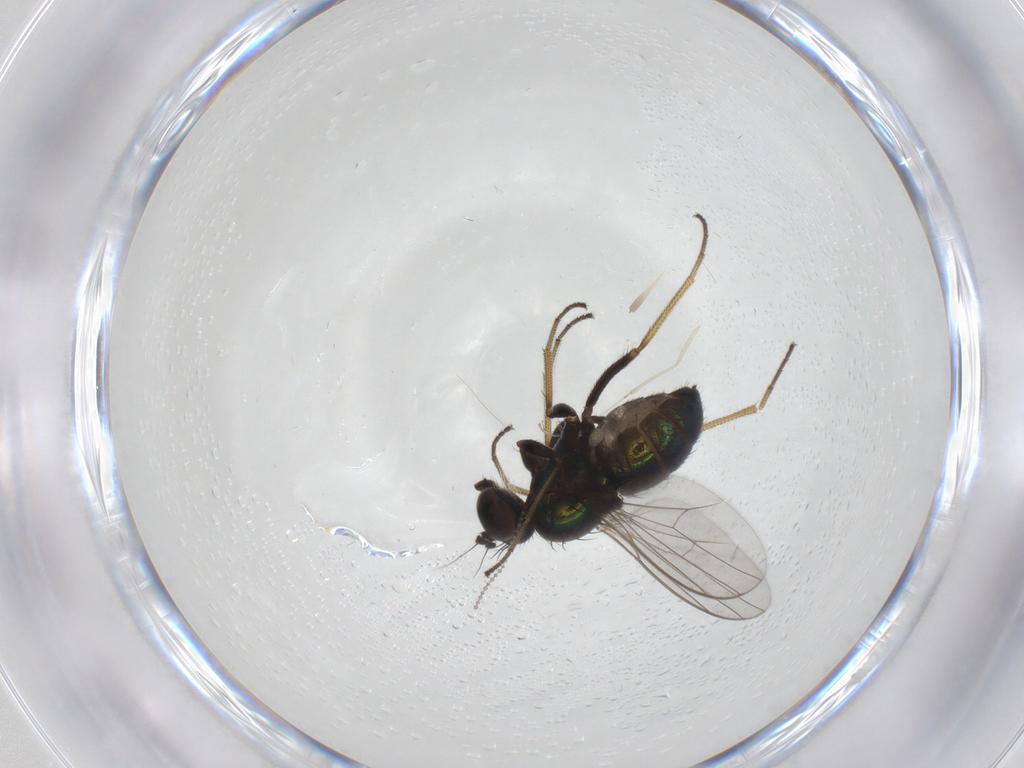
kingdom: Animalia
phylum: Arthropoda
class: Insecta
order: Diptera
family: Dolichopodidae
